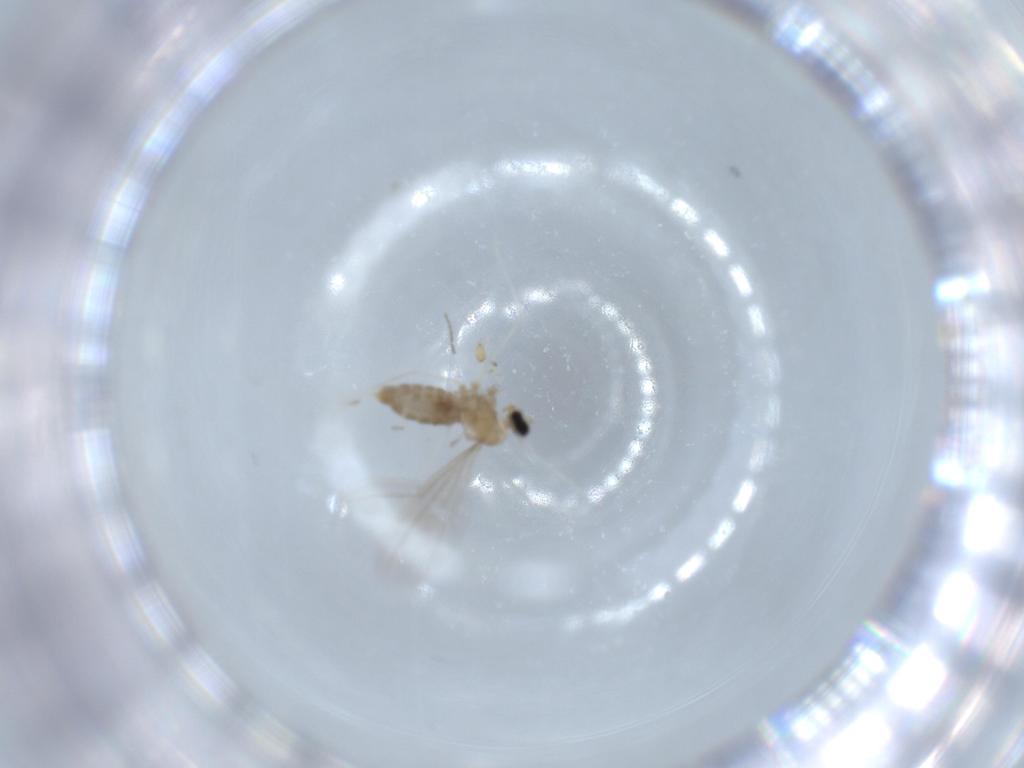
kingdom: Animalia
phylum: Arthropoda
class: Insecta
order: Diptera
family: Cecidomyiidae
